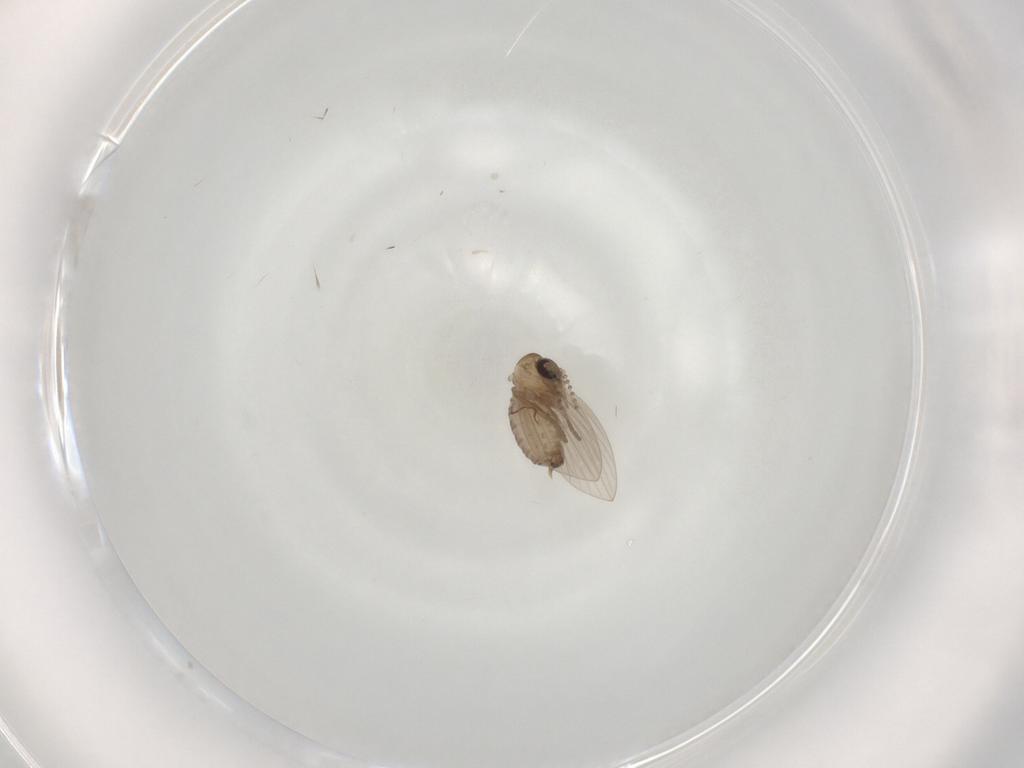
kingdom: Animalia
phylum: Arthropoda
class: Insecta
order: Diptera
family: Psychodidae
